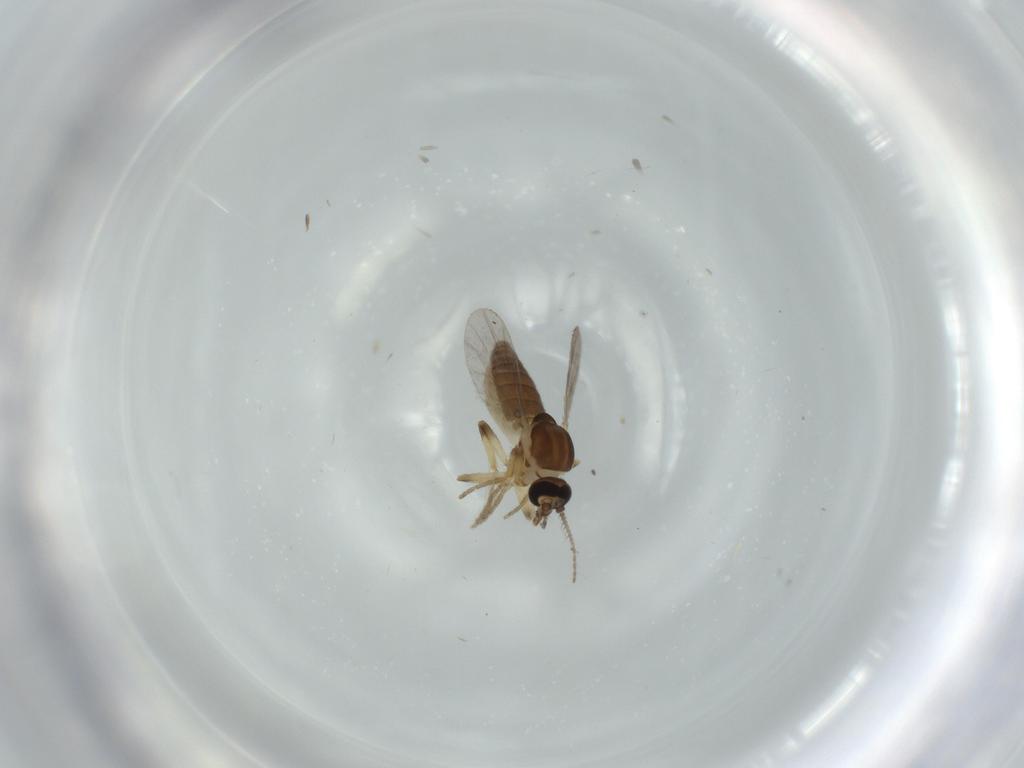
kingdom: Animalia
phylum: Arthropoda
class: Insecta
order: Diptera
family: Ceratopogonidae
